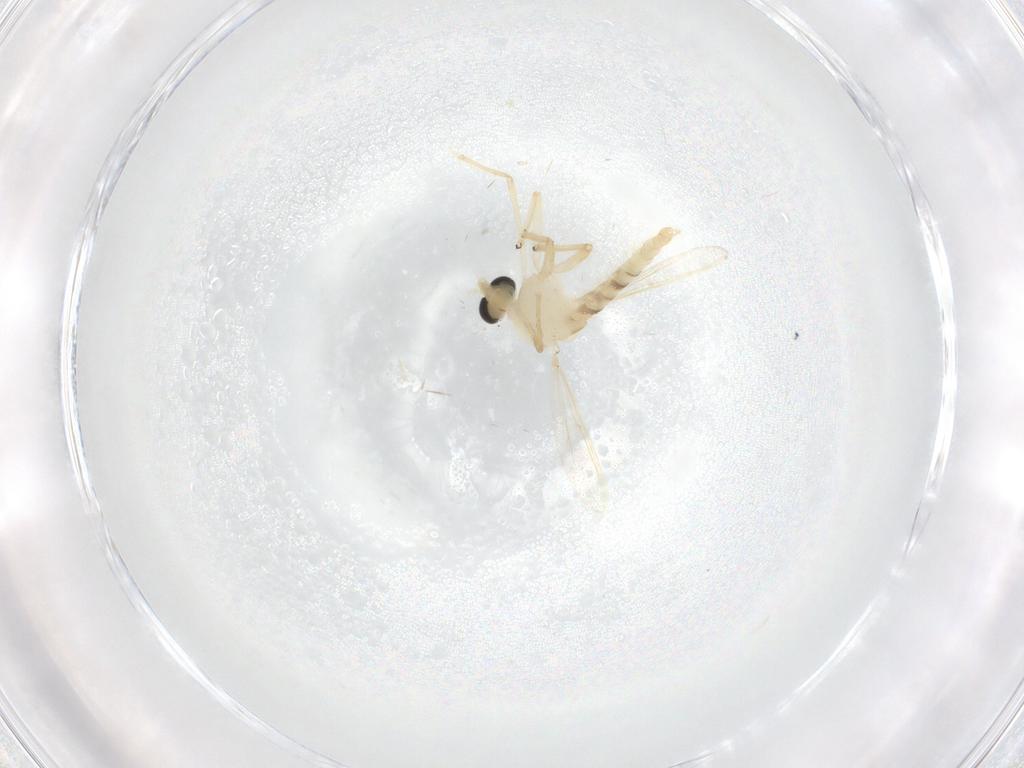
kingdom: Animalia
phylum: Arthropoda
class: Insecta
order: Diptera
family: Chironomidae
